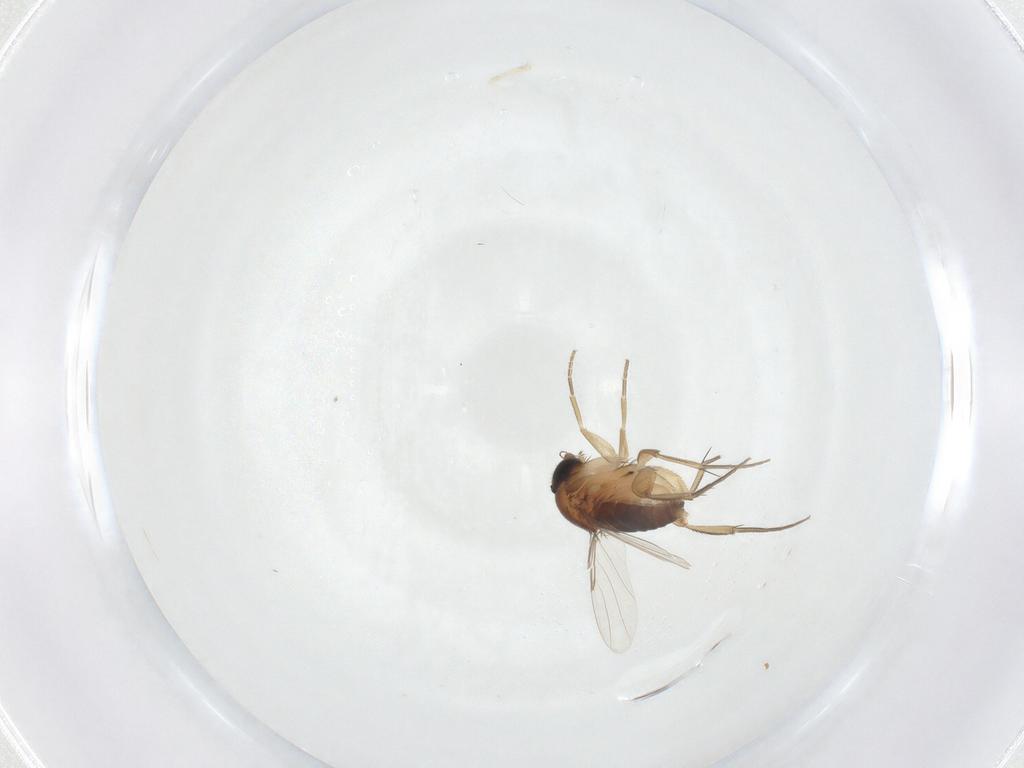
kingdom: Animalia
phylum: Arthropoda
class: Insecta
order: Diptera
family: Phoridae
